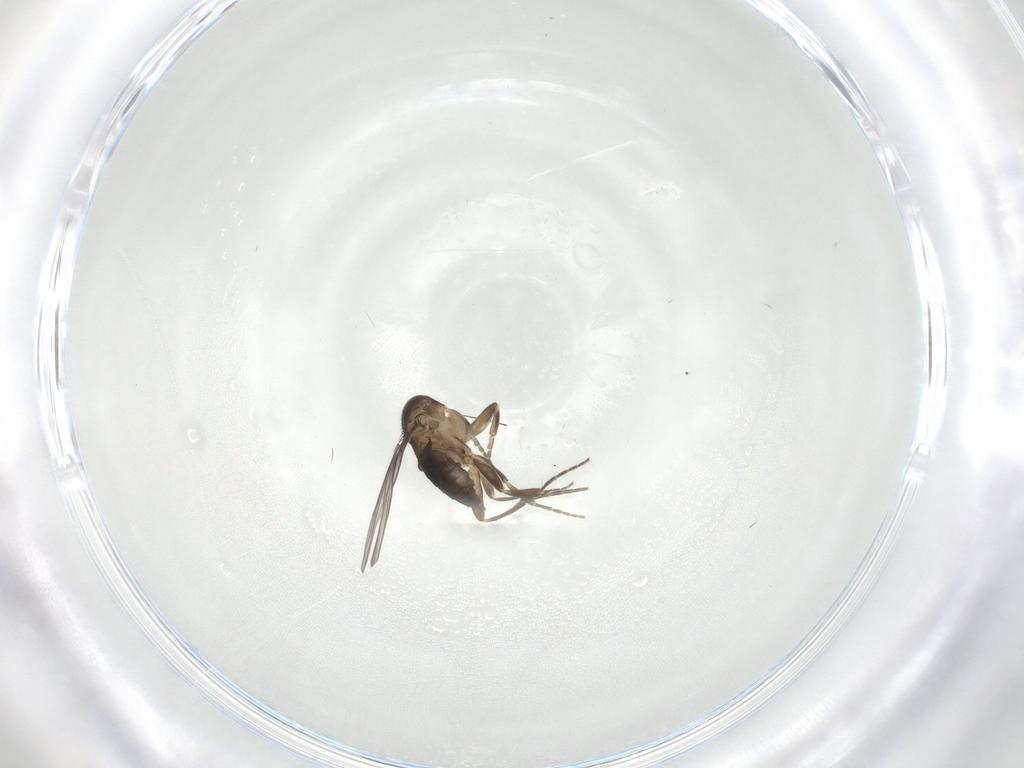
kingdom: Animalia
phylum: Arthropoda
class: Insecta
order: Diptera
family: Phoridae
